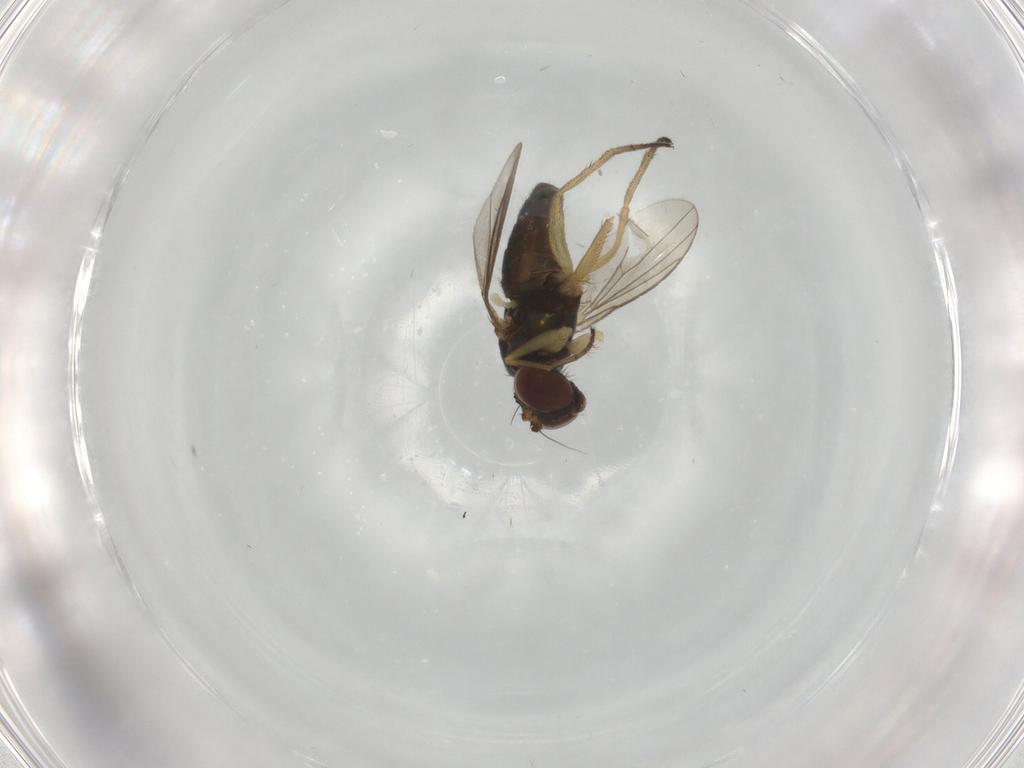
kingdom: Animalia
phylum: Arthropoda
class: Insecta
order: Diptera
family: Dolichopodidae
